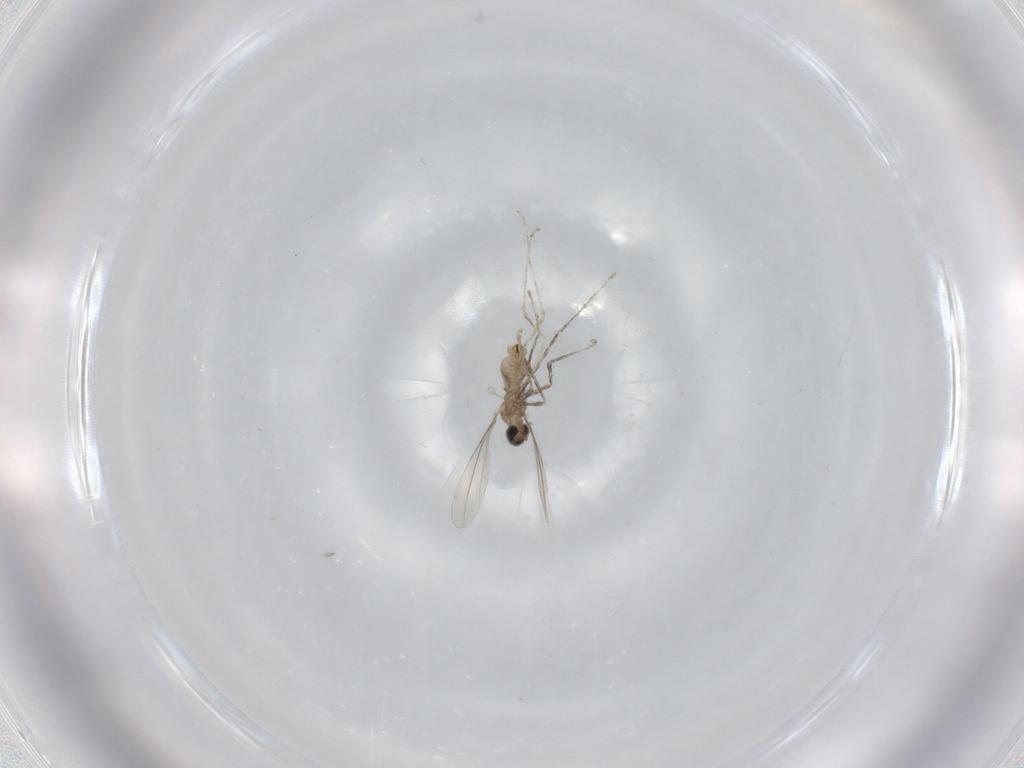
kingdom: Animalia
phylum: Arthropoda
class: Insecta
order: Diptera
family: Cecidomyiidae
